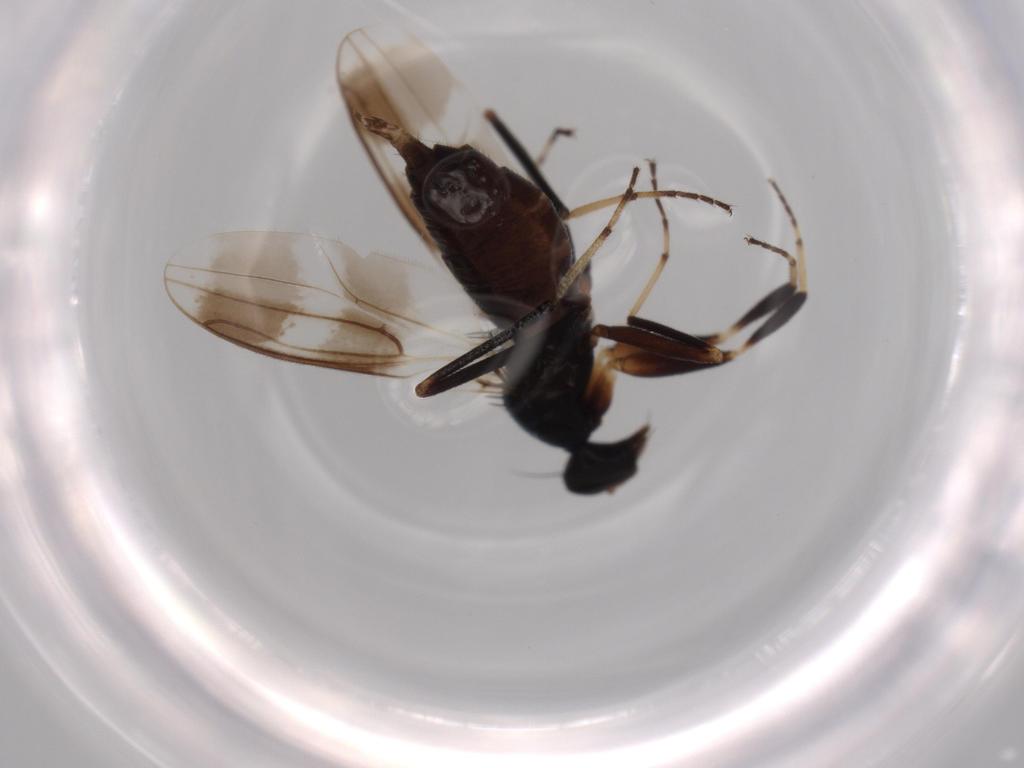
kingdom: Animalia
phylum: Arthropoda
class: Insecta
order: Diptera
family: Hybotidae
